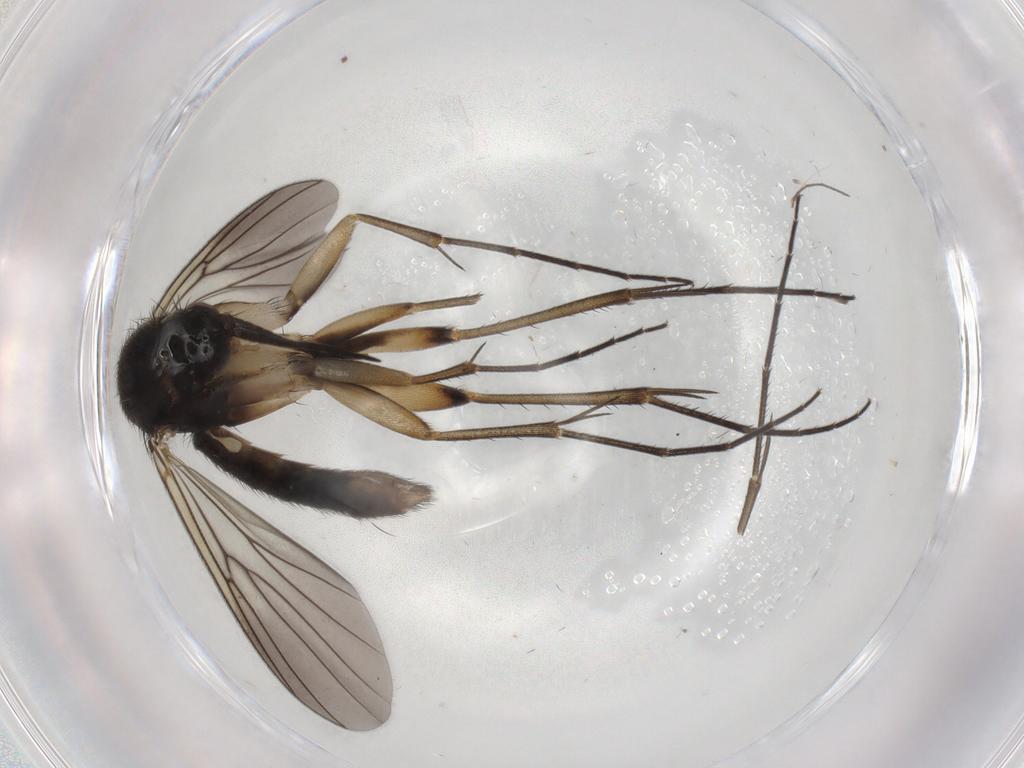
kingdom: Animalia
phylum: Arthropoda
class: Insecta
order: Diptera
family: Mycetophilidae
